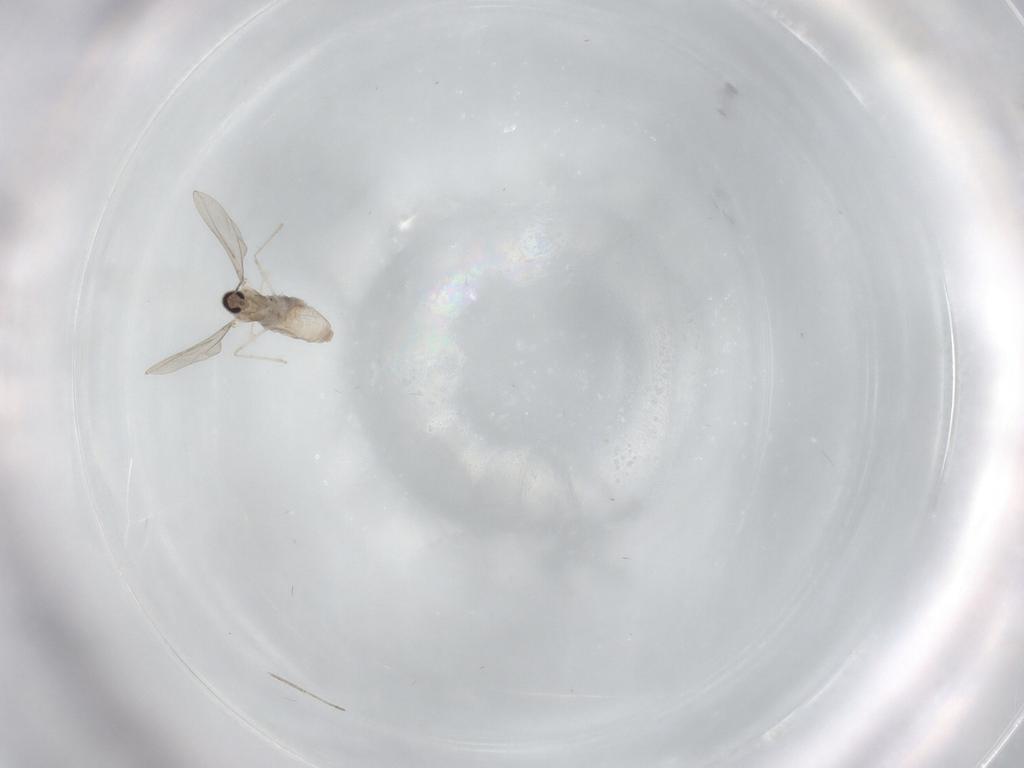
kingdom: Animalia
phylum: Arthropoda
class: Insecta
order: Diptera
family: Cecidomyiidae
